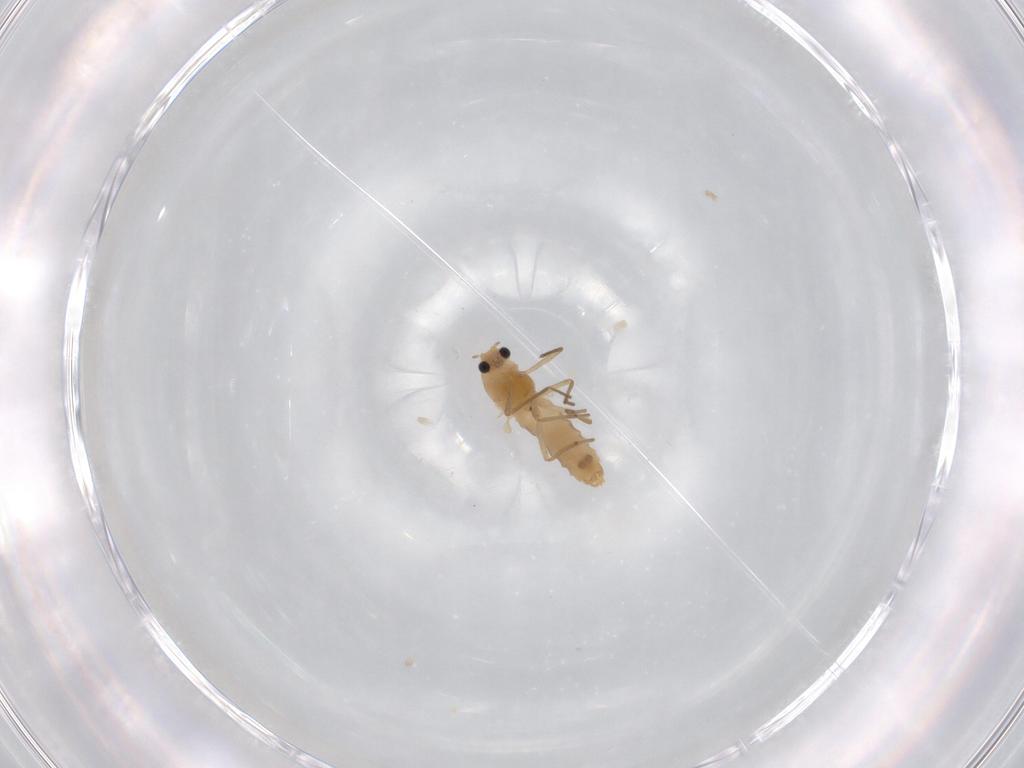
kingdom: Animalia
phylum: Arthropoda
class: Insecta
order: Diptera
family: Chironomidae
